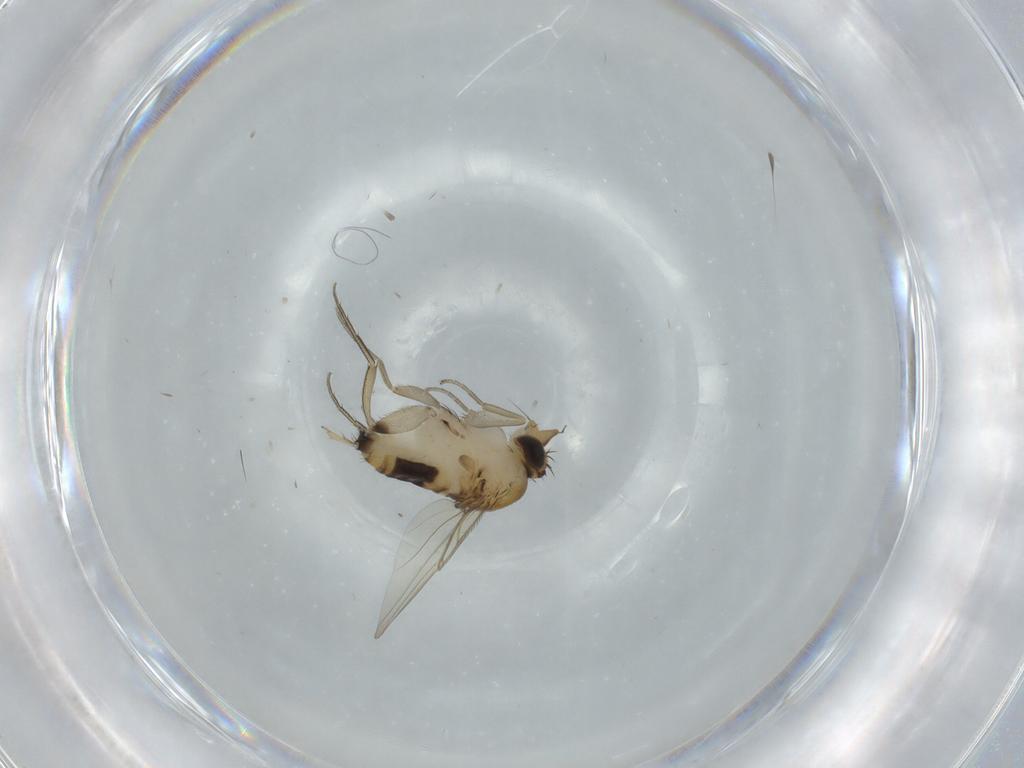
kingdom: Animalia
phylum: Arthropoda
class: Insecta
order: Diptera
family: Phoridae
